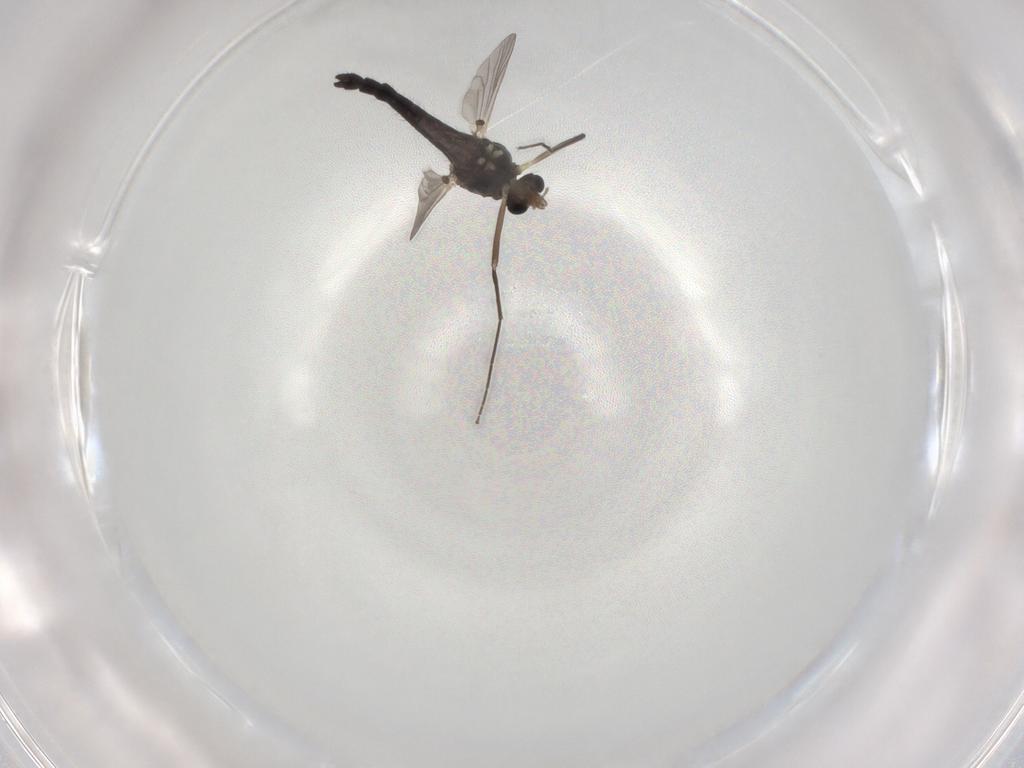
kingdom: Animalia
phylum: Arthropoda
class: Insecta
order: Diptera
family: Chironomidae
